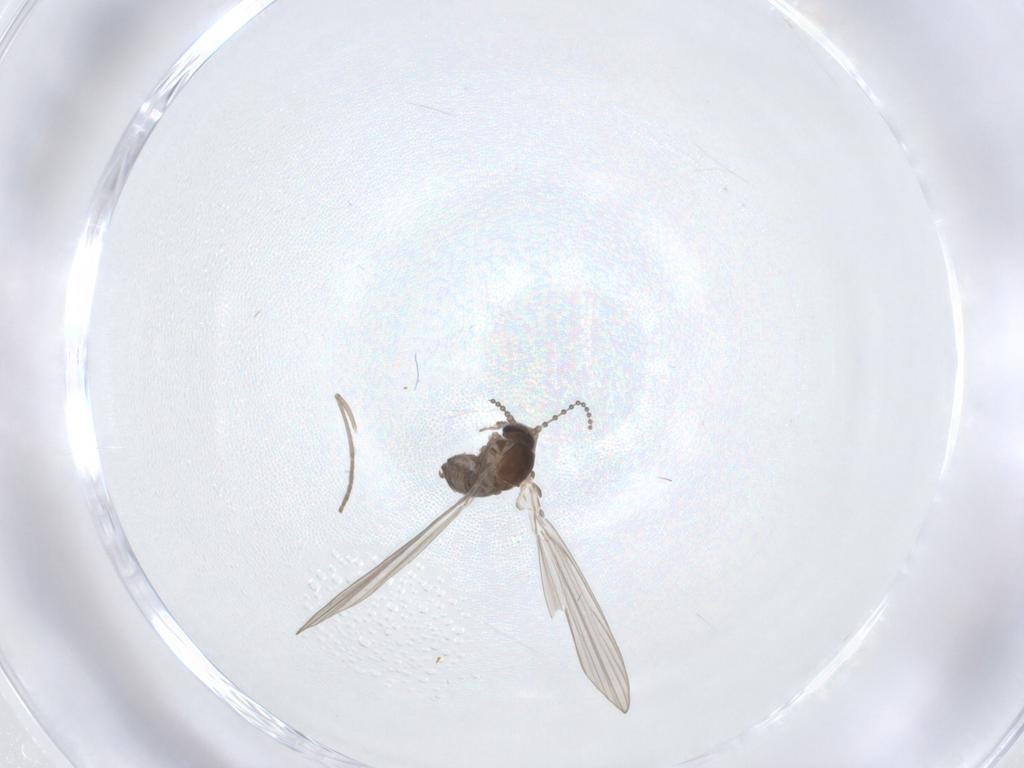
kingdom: Animalia
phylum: Arthropoda
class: Insecta
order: Diptera
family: Psychodidae
